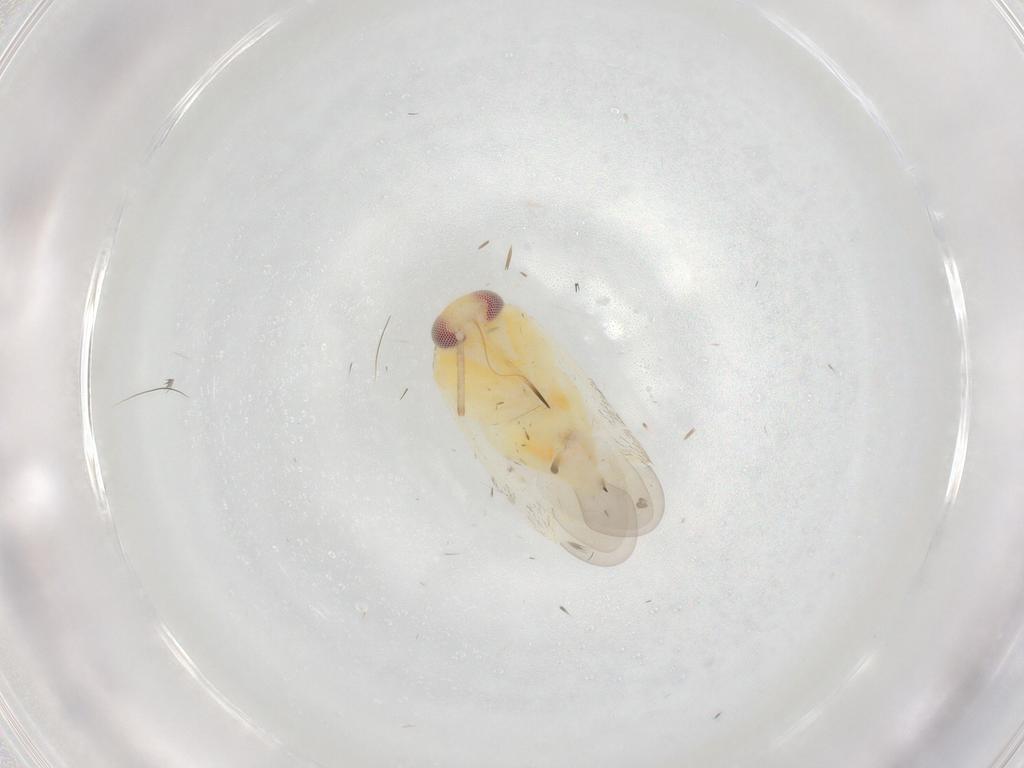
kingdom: Animalia
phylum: Arthropoda
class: Insecta
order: Hemiptera
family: Miridae
